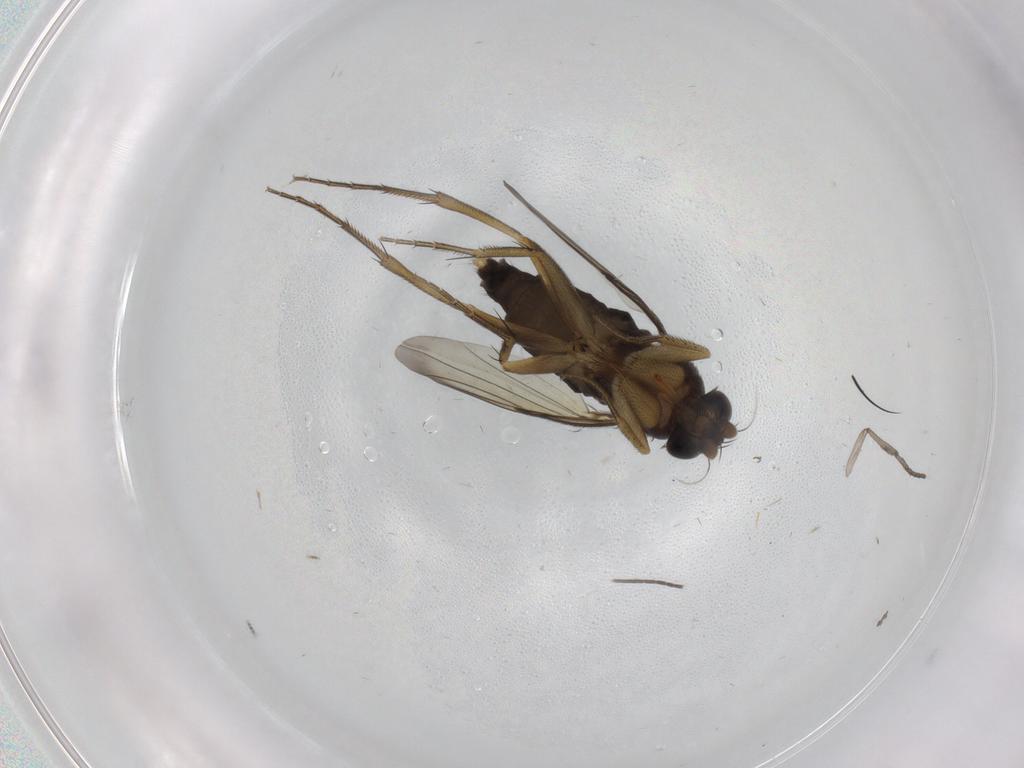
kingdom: Animalia
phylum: Arthropoda
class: Insecta
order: Diptera
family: Phoridae
